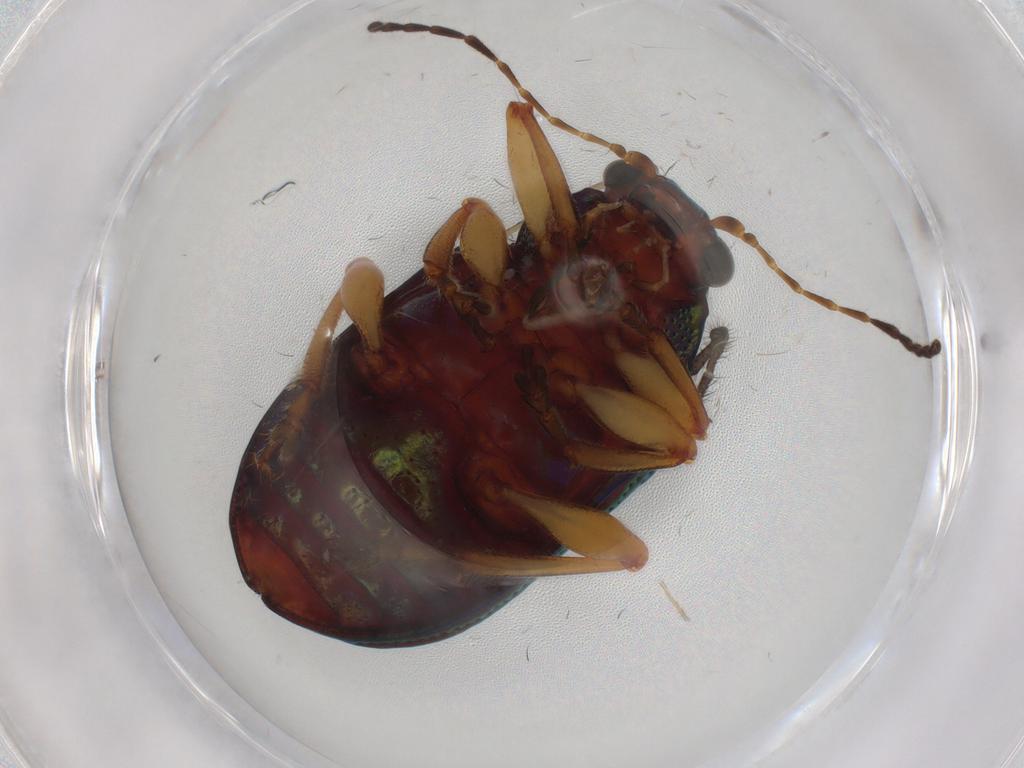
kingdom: Animalia
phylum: Arthropoda
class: Insecta
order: Coleoptera
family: Chrysomelidae
